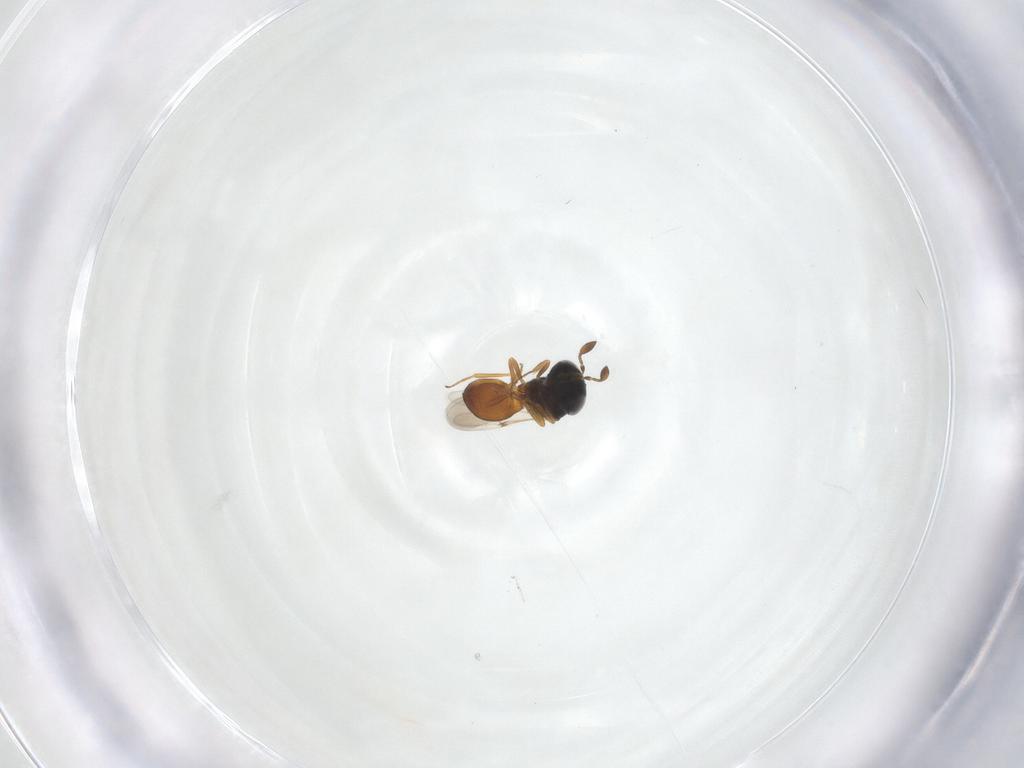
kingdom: Animalia
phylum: Arthropoda
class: Insecta
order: Hymenoptera
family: Scelionidae
